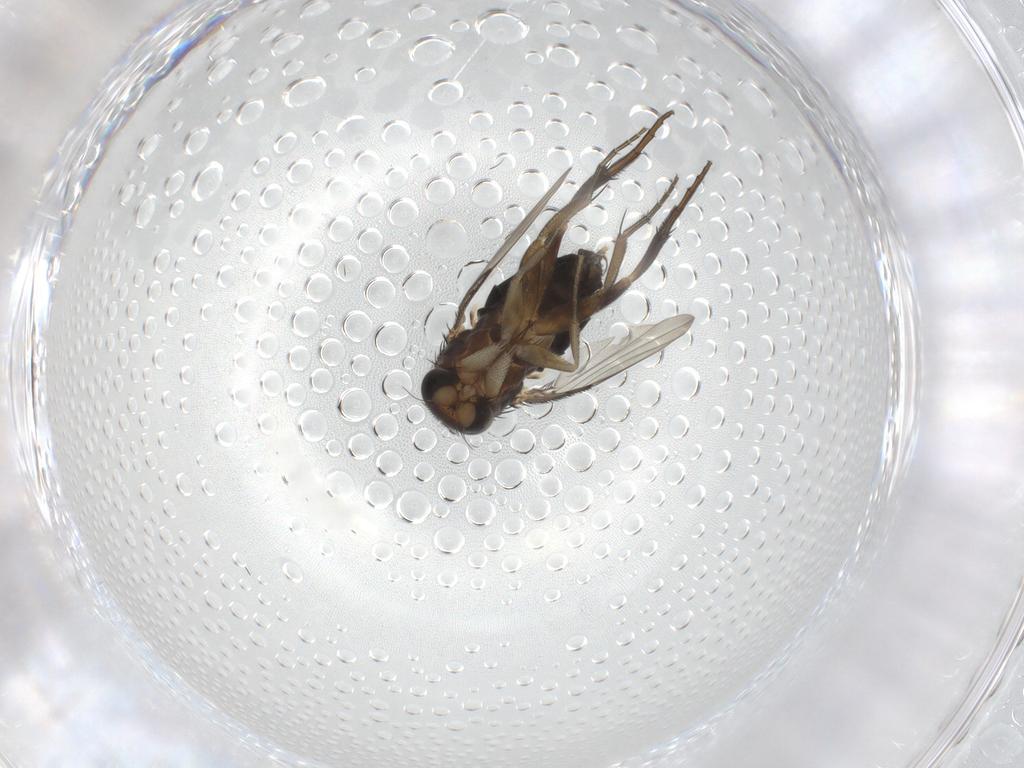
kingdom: Animalia
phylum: Arthropoda
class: Insecta
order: Diptera
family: Phoridae
